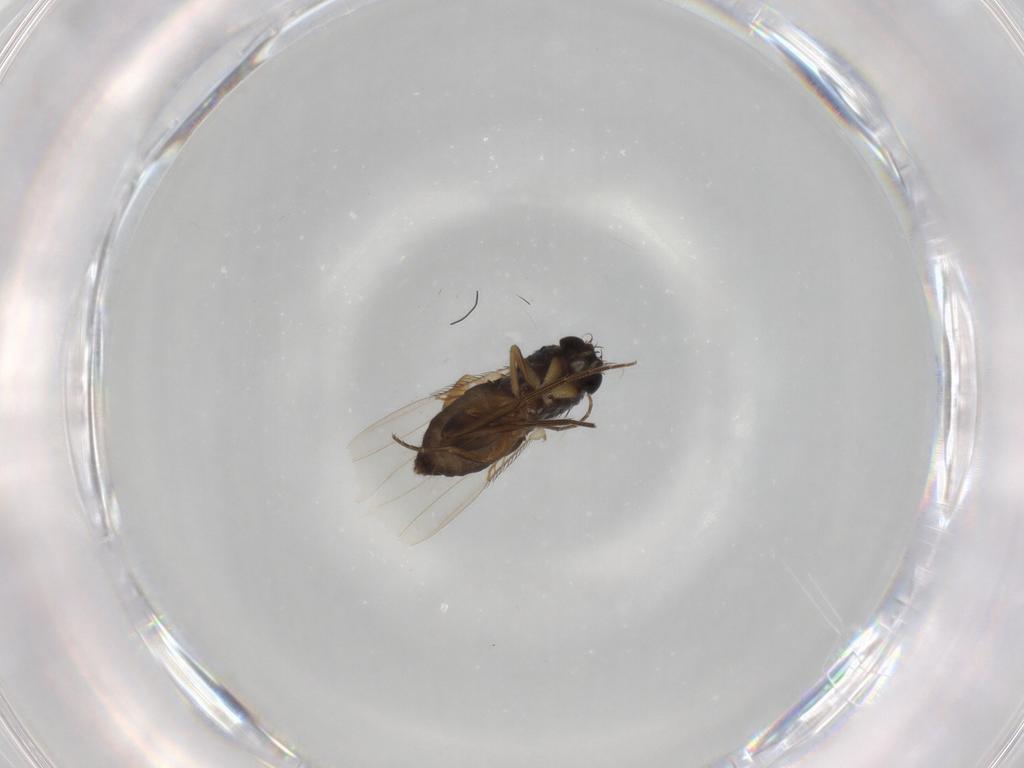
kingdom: Animalia
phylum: Arthropoda
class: Insecta
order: Diptera
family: Phoridae
